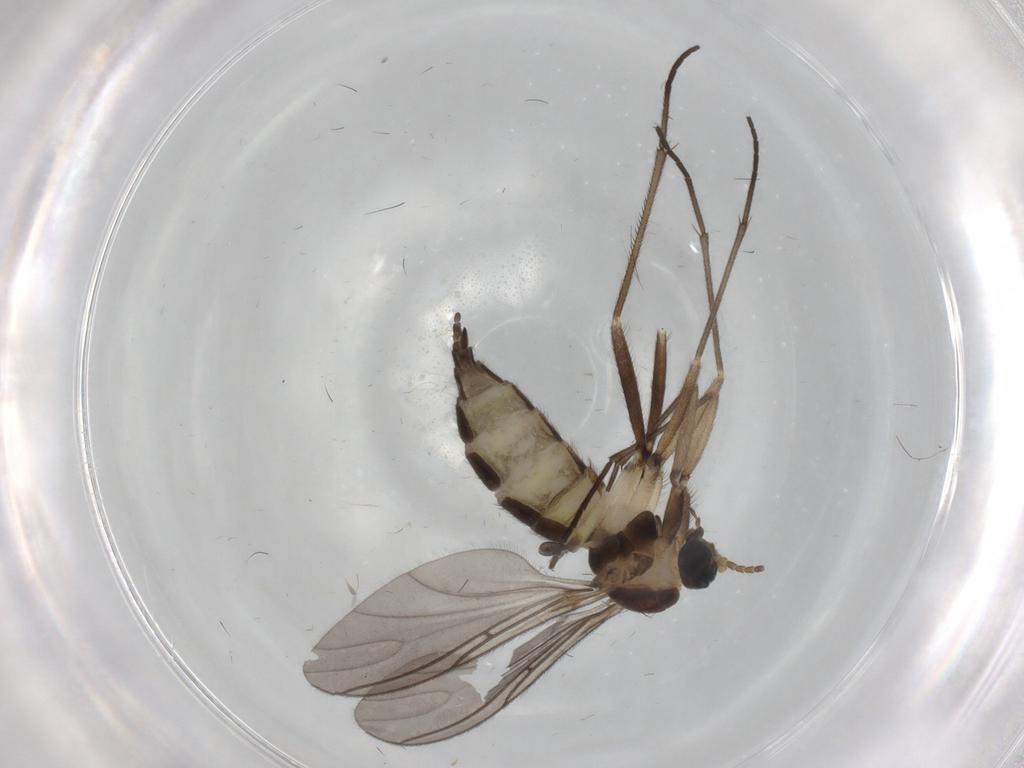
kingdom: Animalia
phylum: Arthropoda
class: Insecta
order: Diptera
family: Sciaridae
